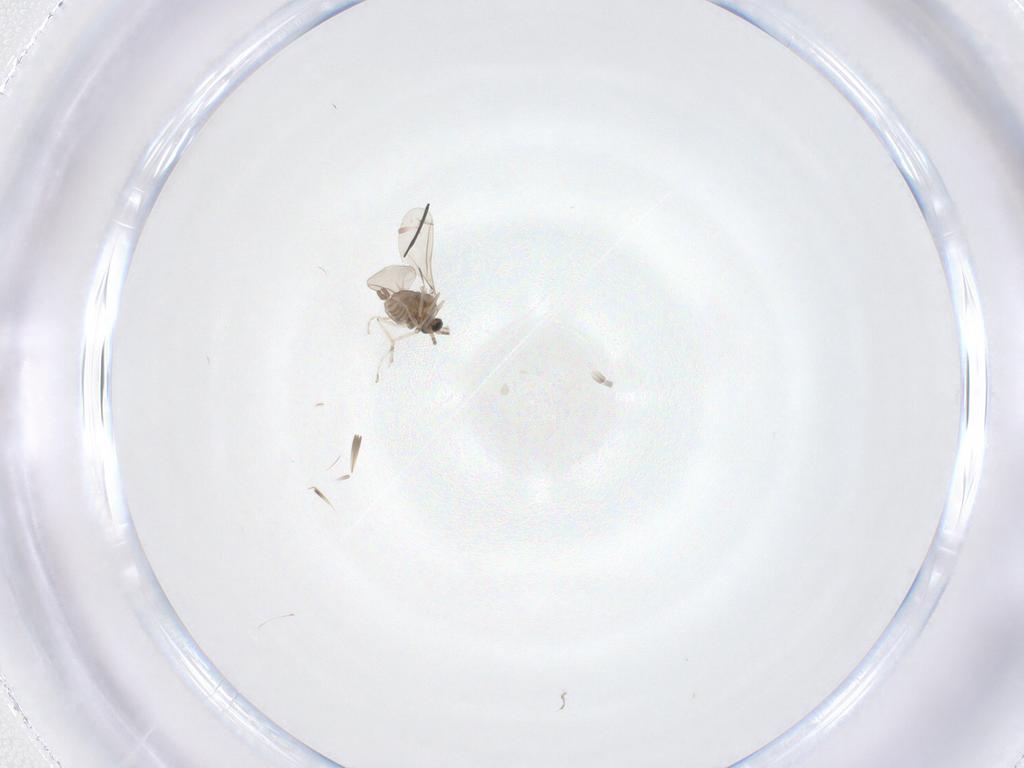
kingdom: Animalia
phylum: Arthropoda
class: Insecta
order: Diptera
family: Cecidomyiidae
